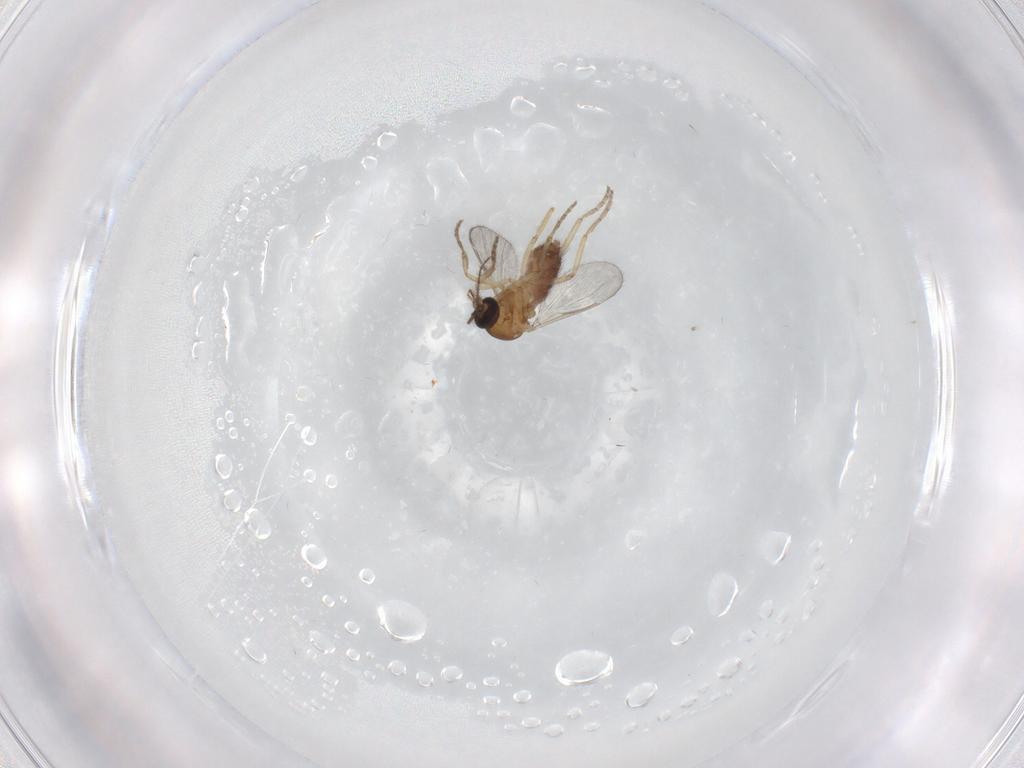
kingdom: Animalia
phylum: Arthropoda
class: Insecta
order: Diptera
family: Ceratopogonidae
